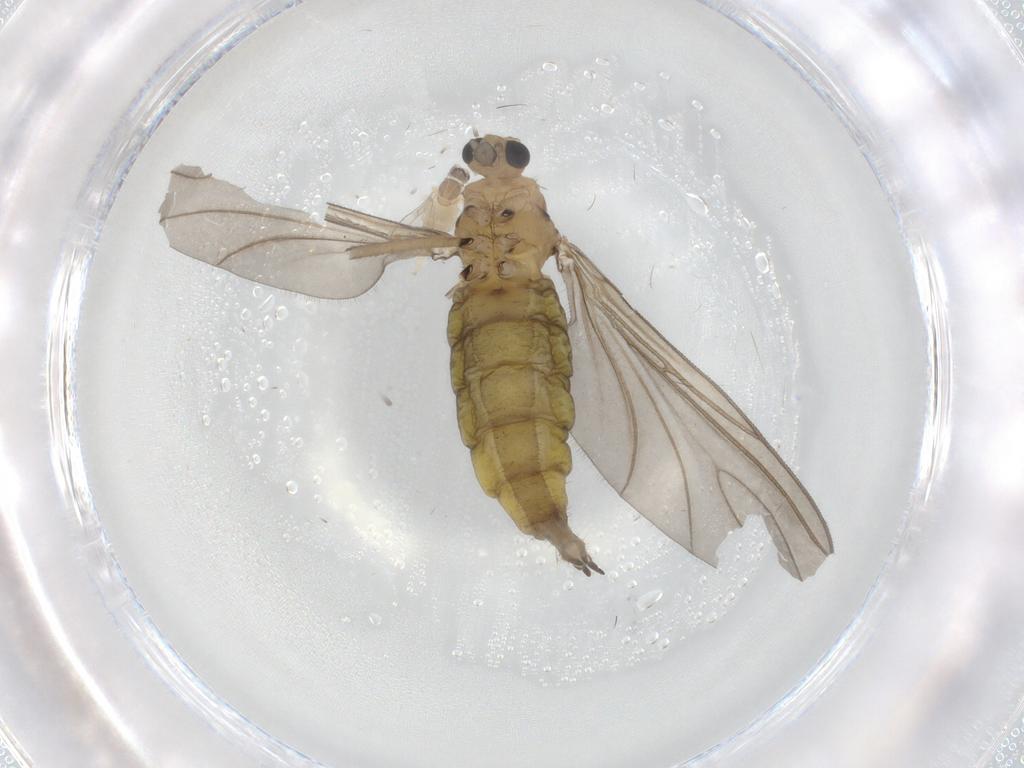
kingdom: Animalia
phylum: Arthropoda
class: Insecta
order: Diptera
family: Sciaridae
